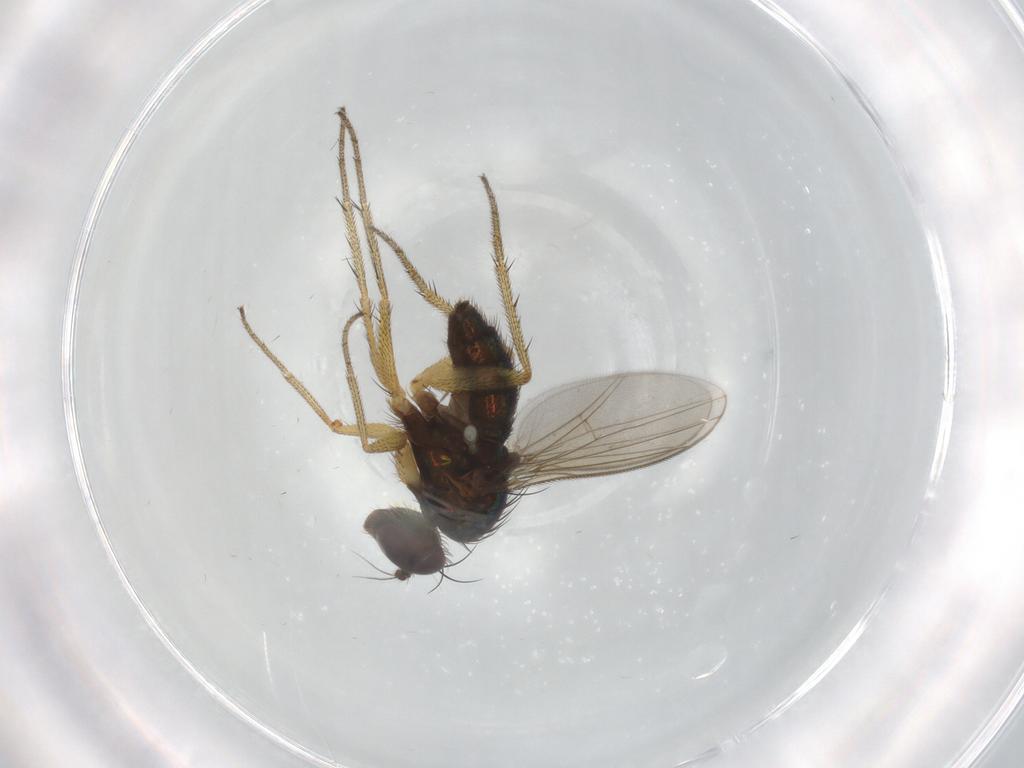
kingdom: Animalia
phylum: Arthropoda
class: Insecta
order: Diptera
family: Dolichopodidae
